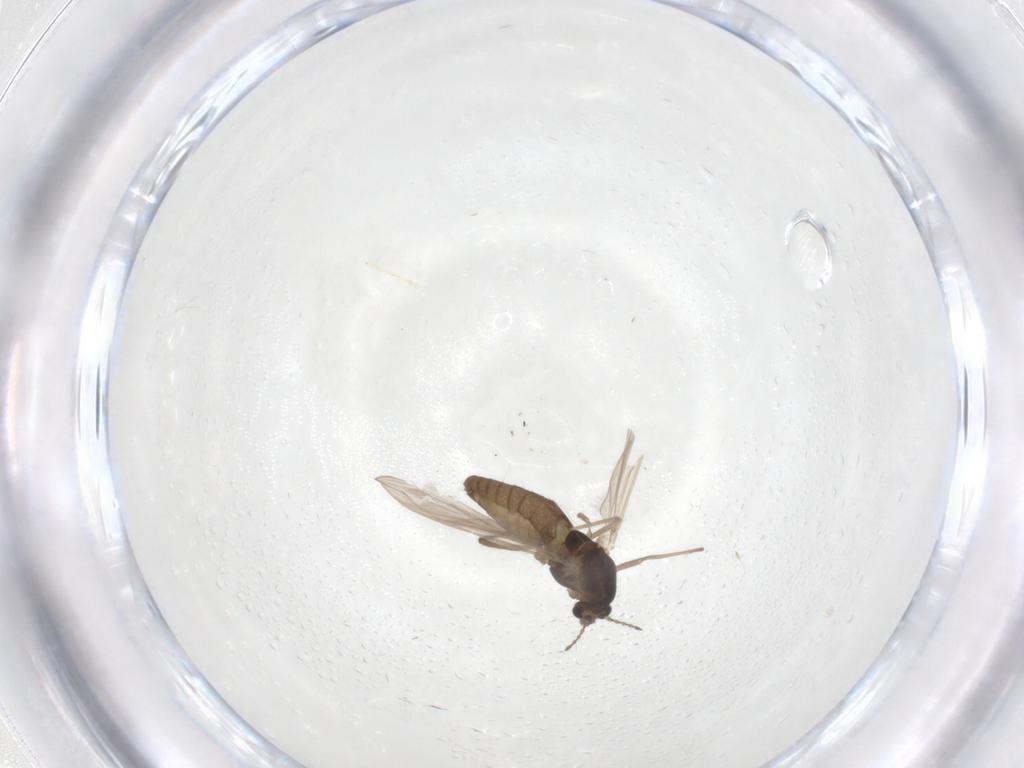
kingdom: Animalia
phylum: Arthropoda
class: Insecta
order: Diptera
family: Chironomidae
